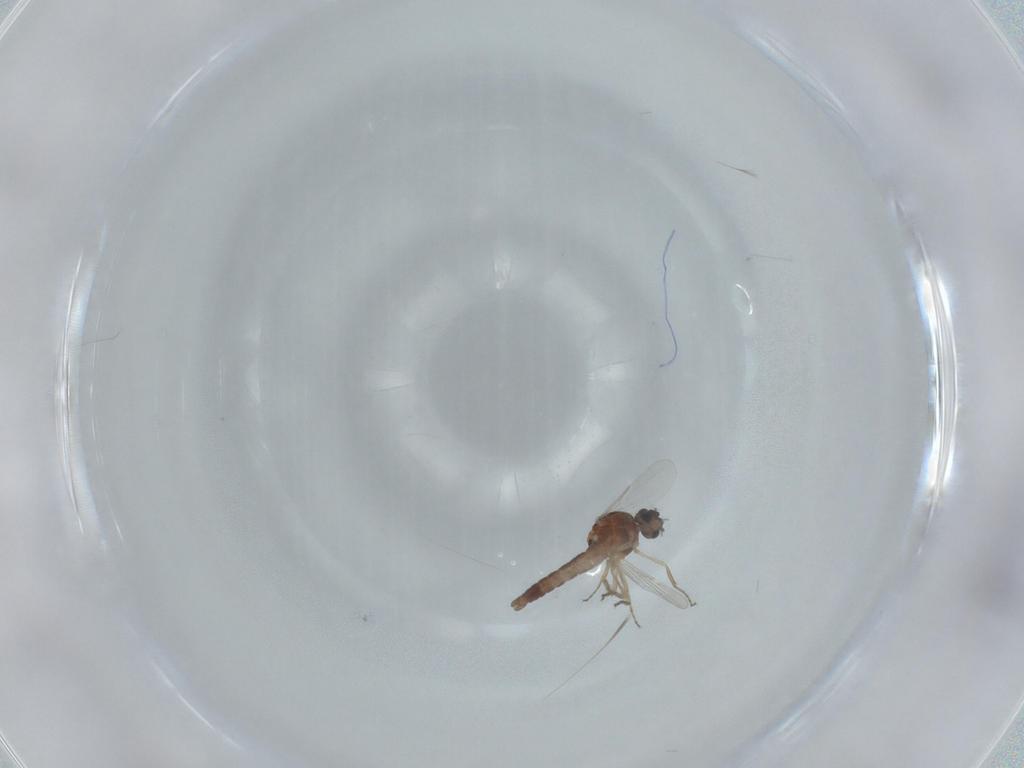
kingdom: Animalia
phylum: Arthropoda
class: Insecta
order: Diptera
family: Ceratopogonidae
